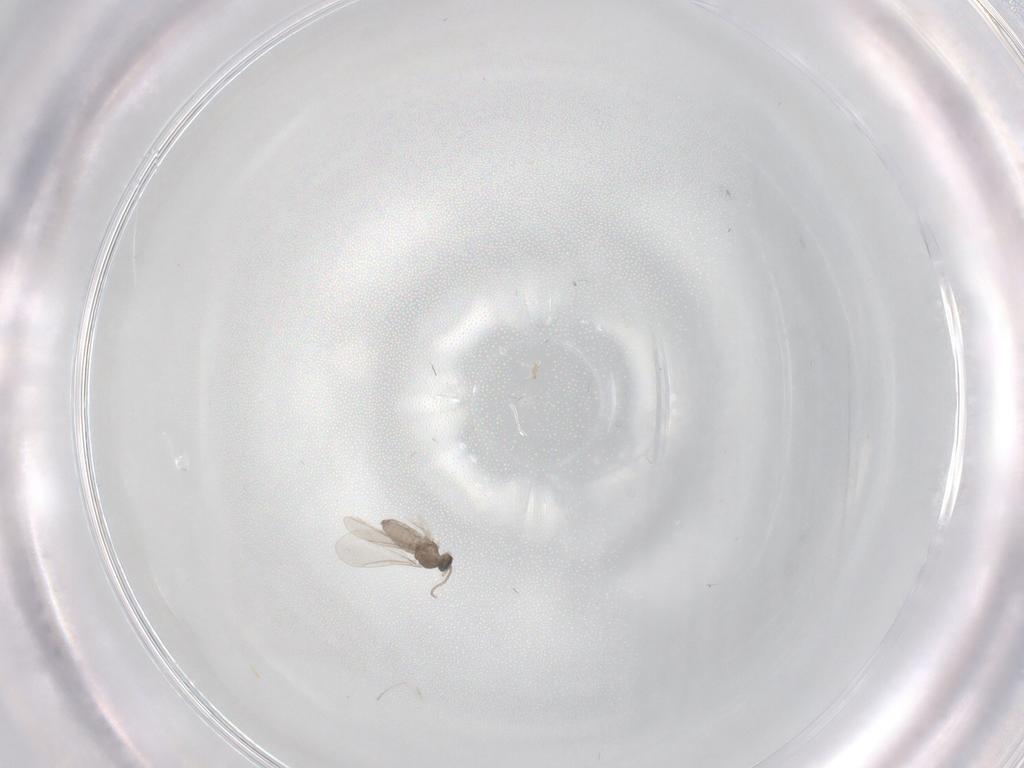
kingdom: Animalia
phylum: Arthropoda
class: Insecta
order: Diptera
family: Cecidomyiidae
